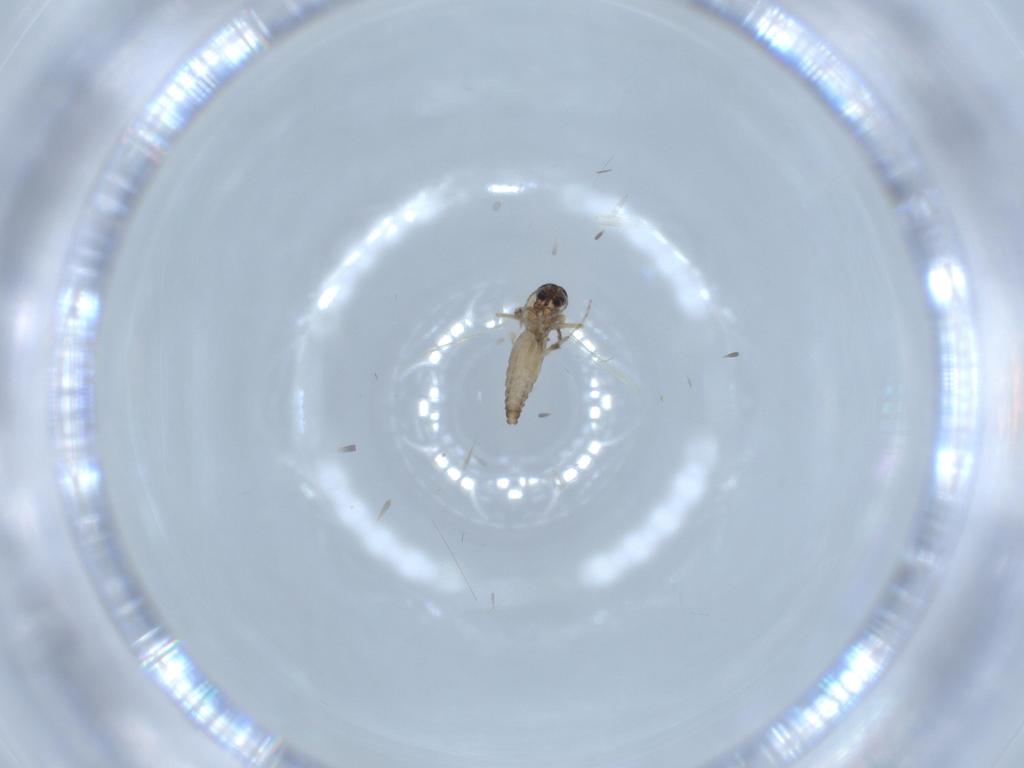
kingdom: Animalia
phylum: Arthropoda
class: Insecta
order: Diptera
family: Ceratopogonidae
